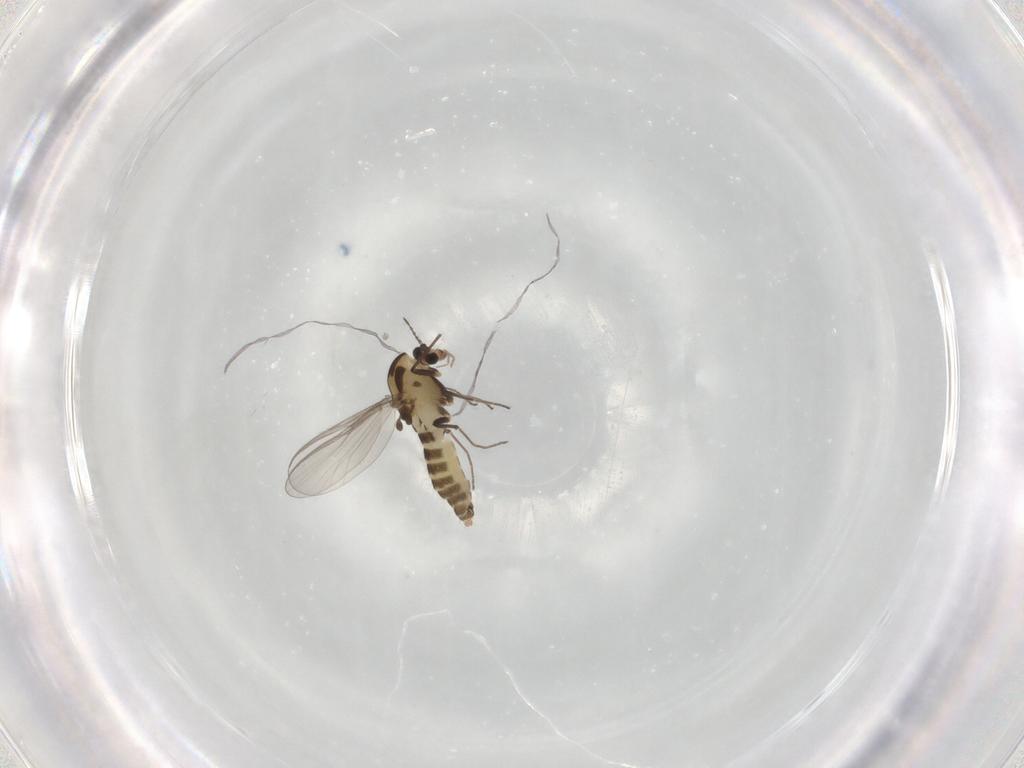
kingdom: Animalia
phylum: Arthropoda
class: Insecta
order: Diptera
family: Chironomidae
